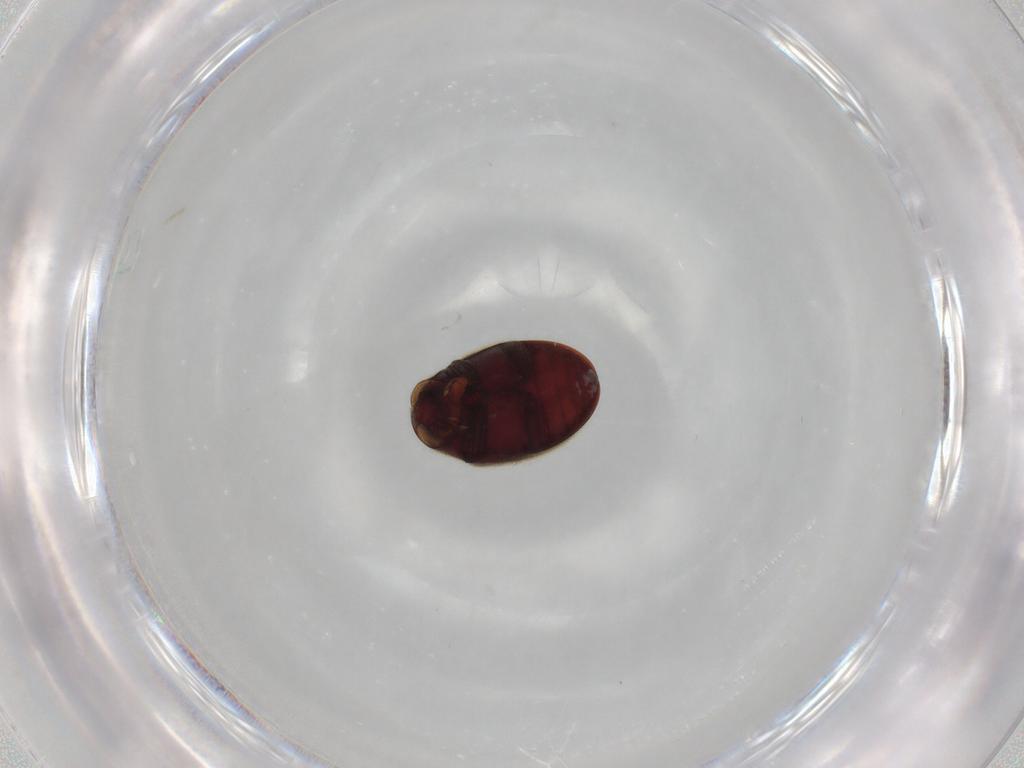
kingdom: Animalia
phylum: Arthropoda
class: Insecta
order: Coleoptera
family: Ptinidae
